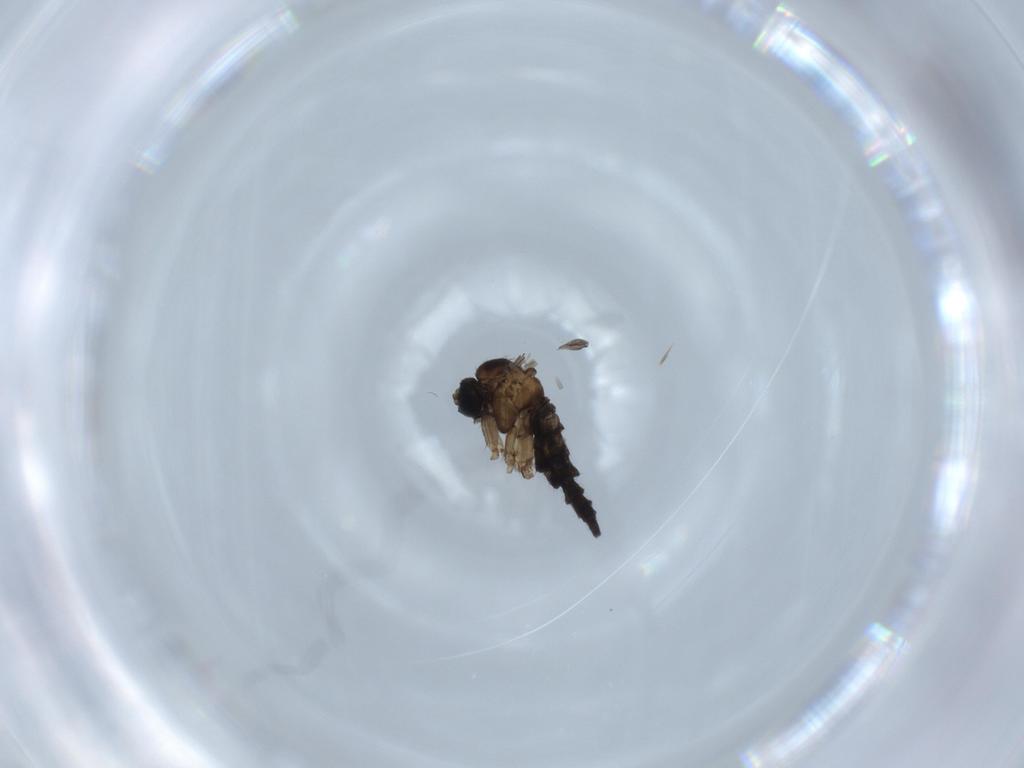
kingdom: Animalia
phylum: Arthropoda
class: Insecta
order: Diptera
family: Sciaridae
